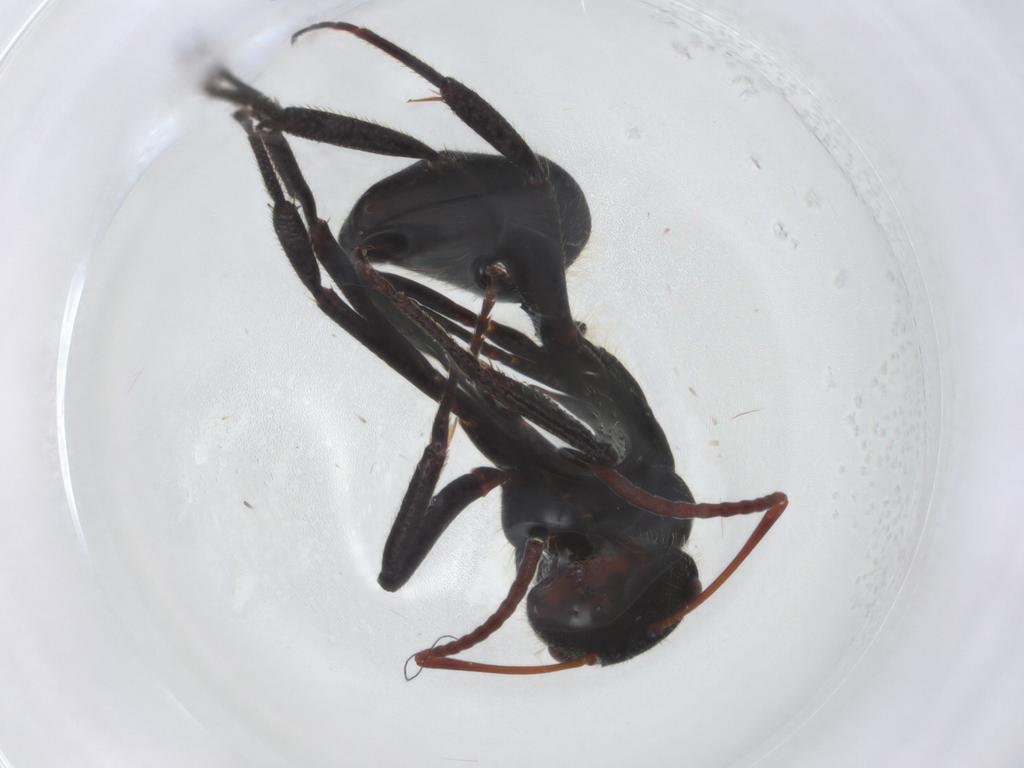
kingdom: Animalia
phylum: Arthropoda
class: Insecta
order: Hymenoptera
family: Formicidae
